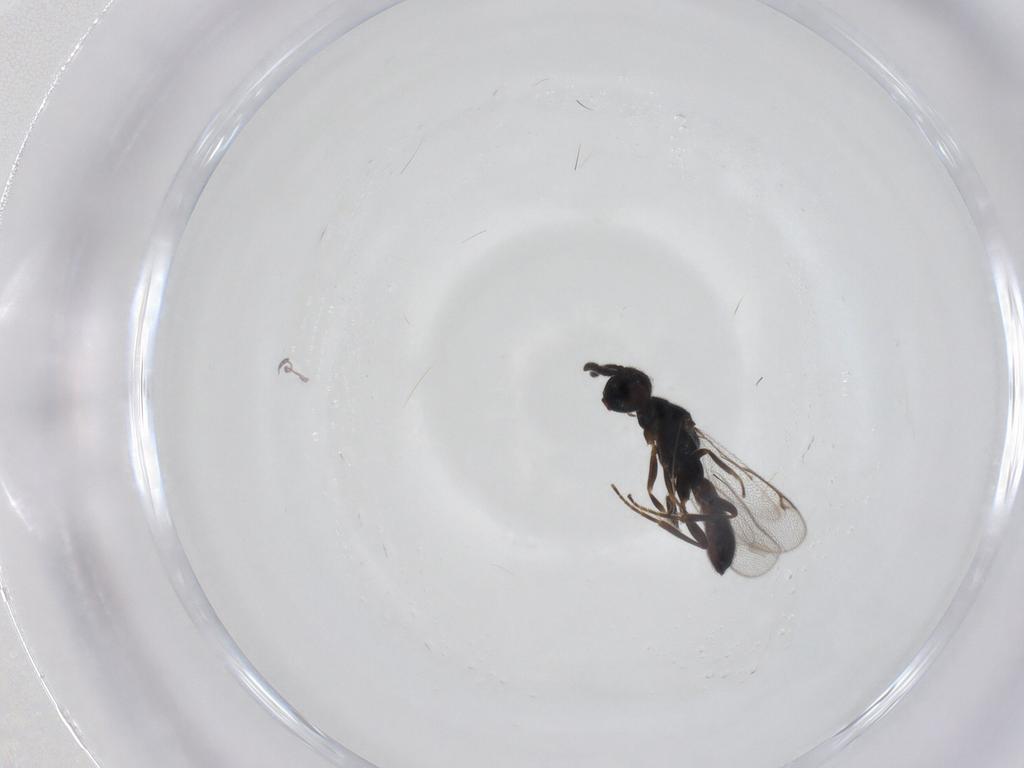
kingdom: Animalia
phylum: Arthropoda
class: Insecta
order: Hymenoptera
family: Cleonyminae
